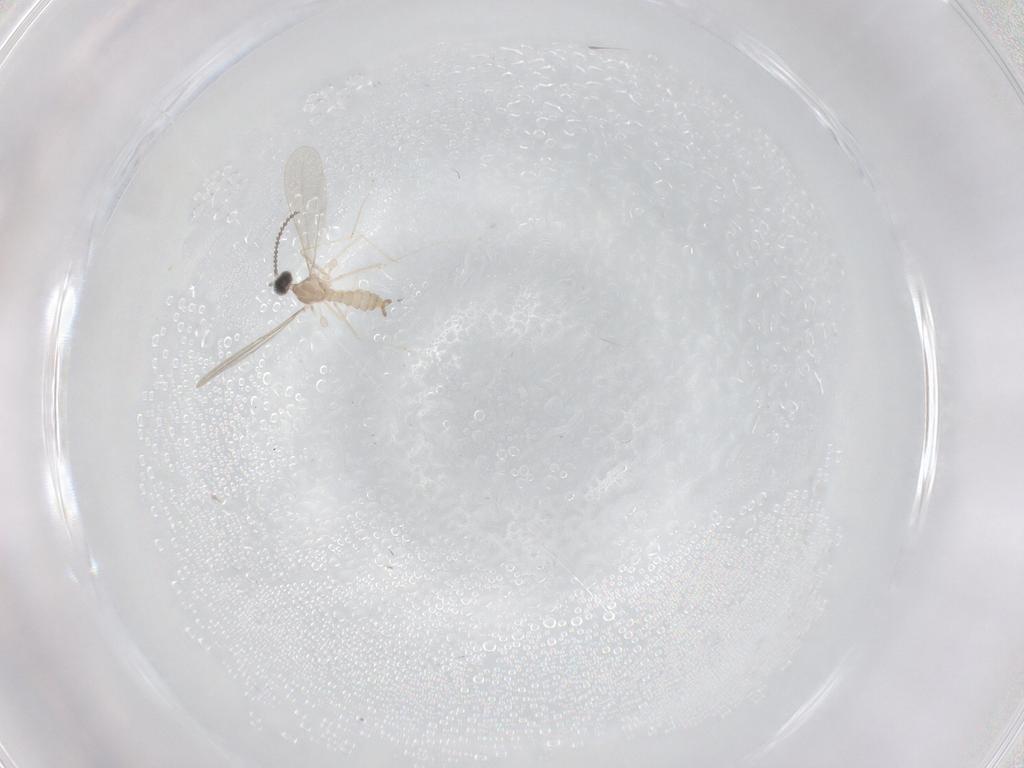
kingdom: Animalia
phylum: Arthropoda
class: Insecta
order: Diptera
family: Cecidomyiidae
